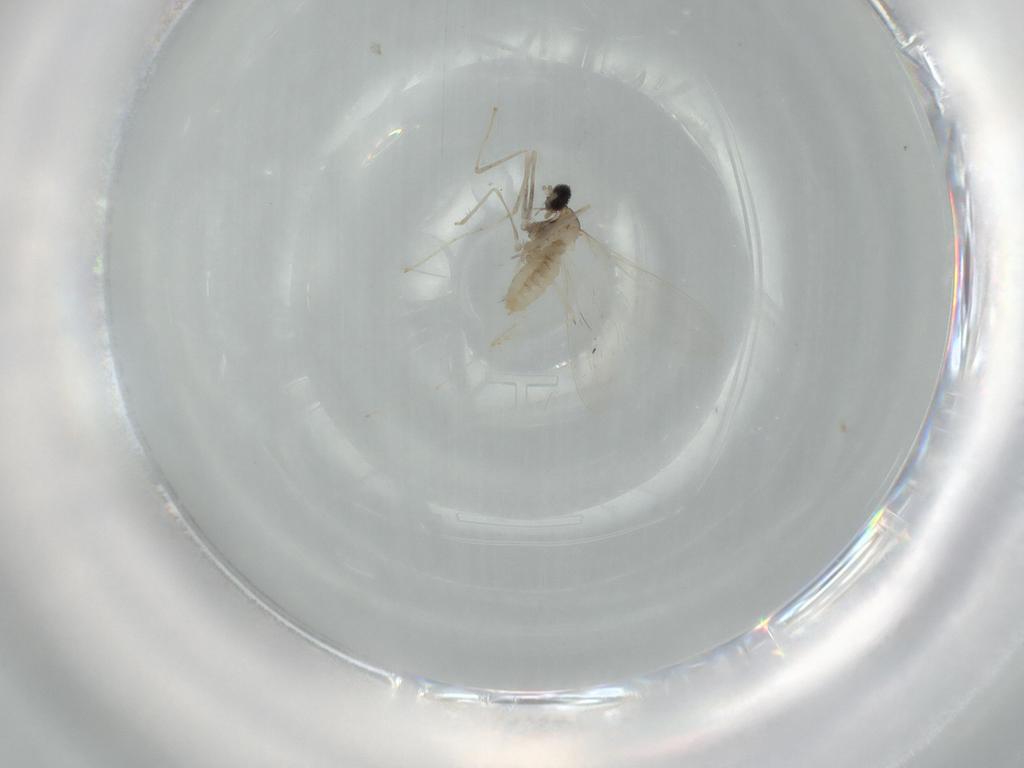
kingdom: Animalia
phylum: Arthropoda
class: Insecta
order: Diptera
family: Cecidomyiidae
